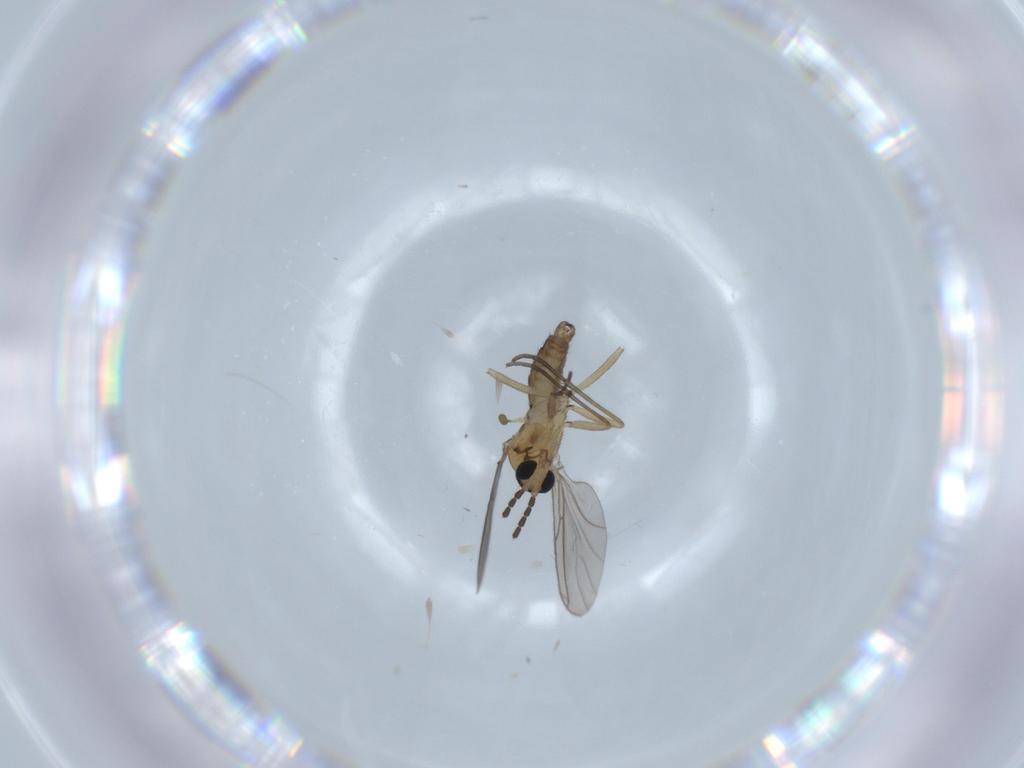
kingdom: Animalia
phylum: Arthropoda
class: Insecta
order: Diptera
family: Sciaridae
